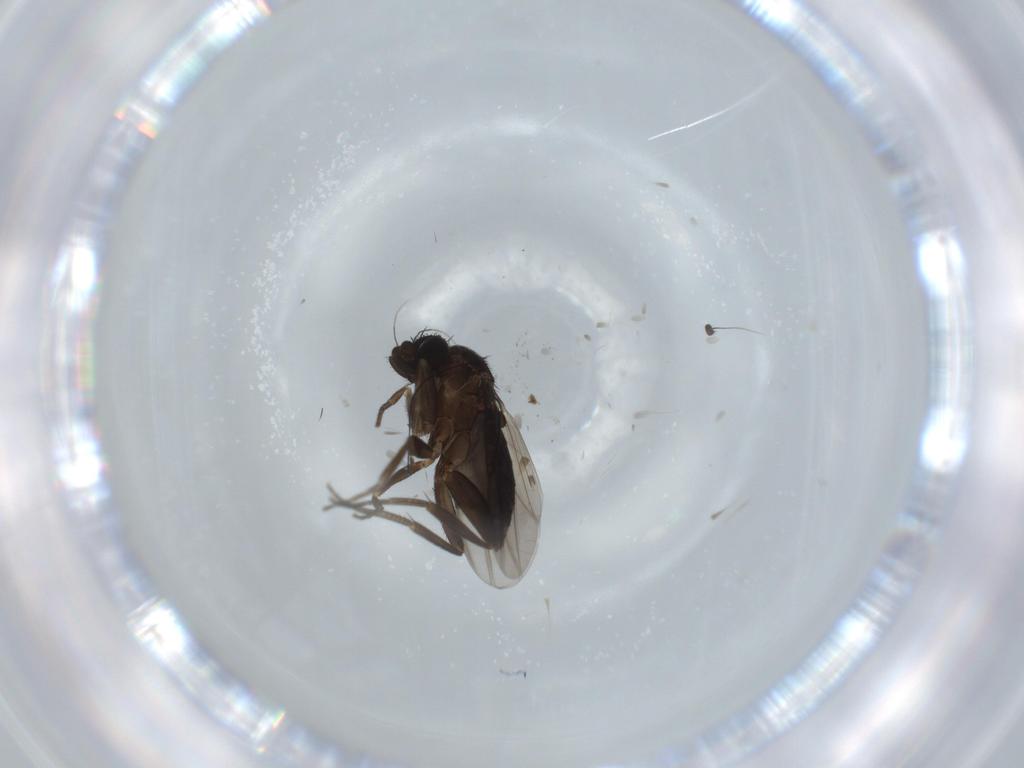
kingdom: Animalia
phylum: Arthropoda
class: Insecta
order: Diptera
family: Phoridae
